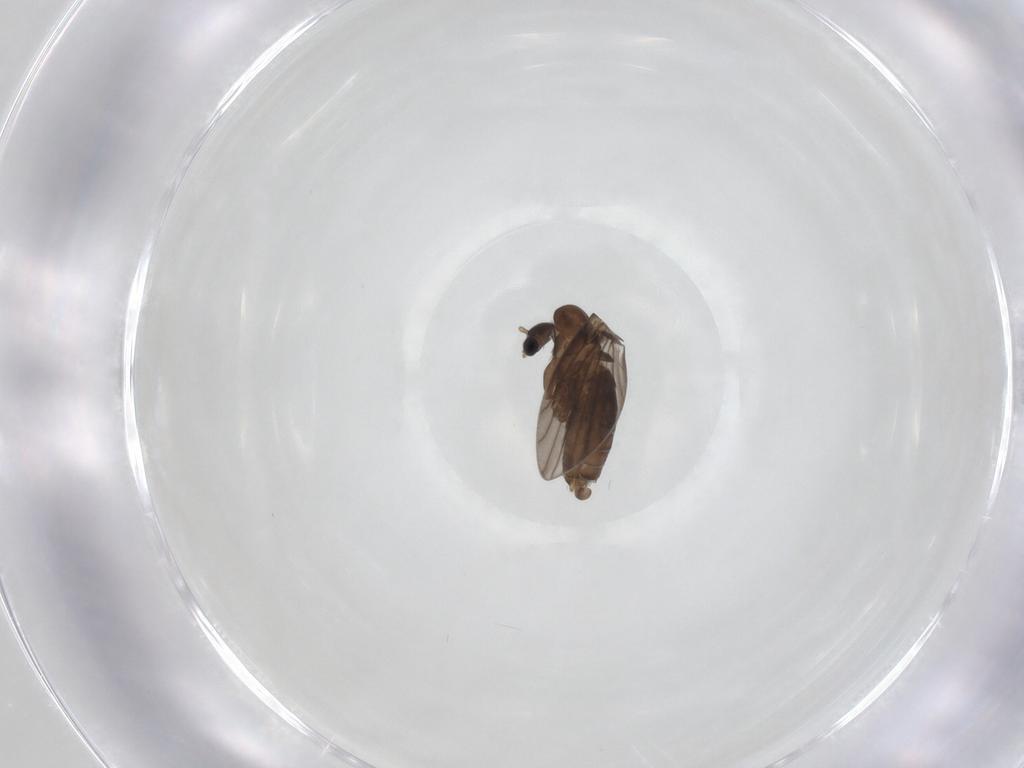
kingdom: Animalia
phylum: Arthropoda
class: Insecta
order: Diptera
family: Psychodidae
